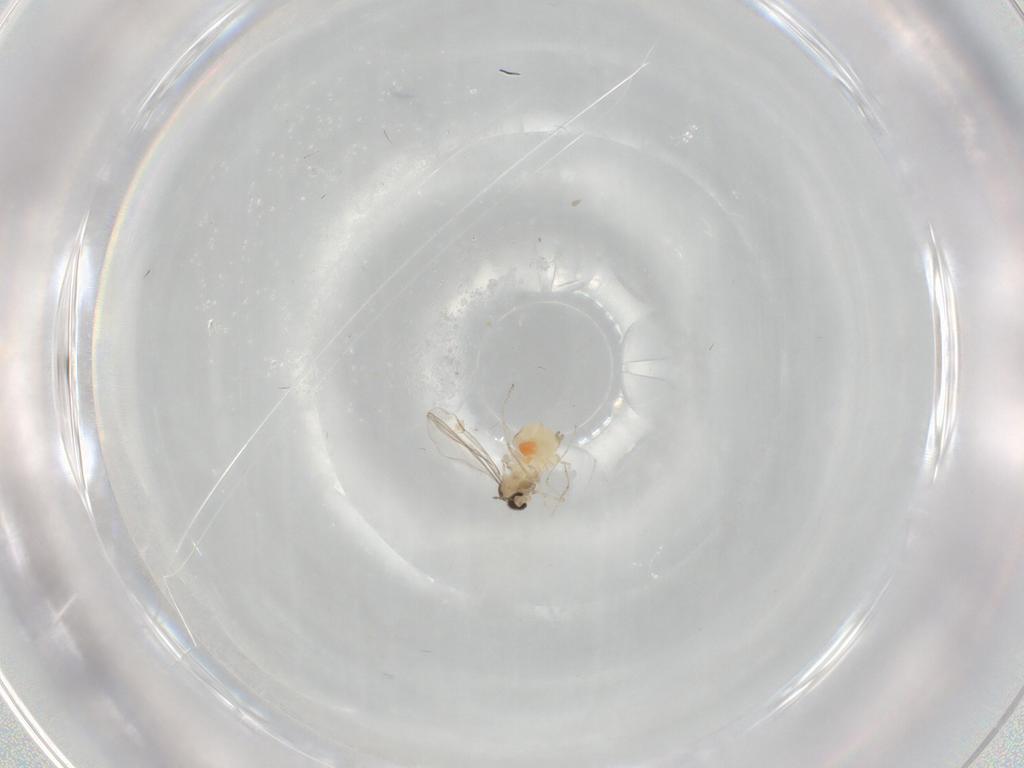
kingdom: Animalia
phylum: Arthropoda
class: Insecta
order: Diptera
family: Cecidomyiidae
